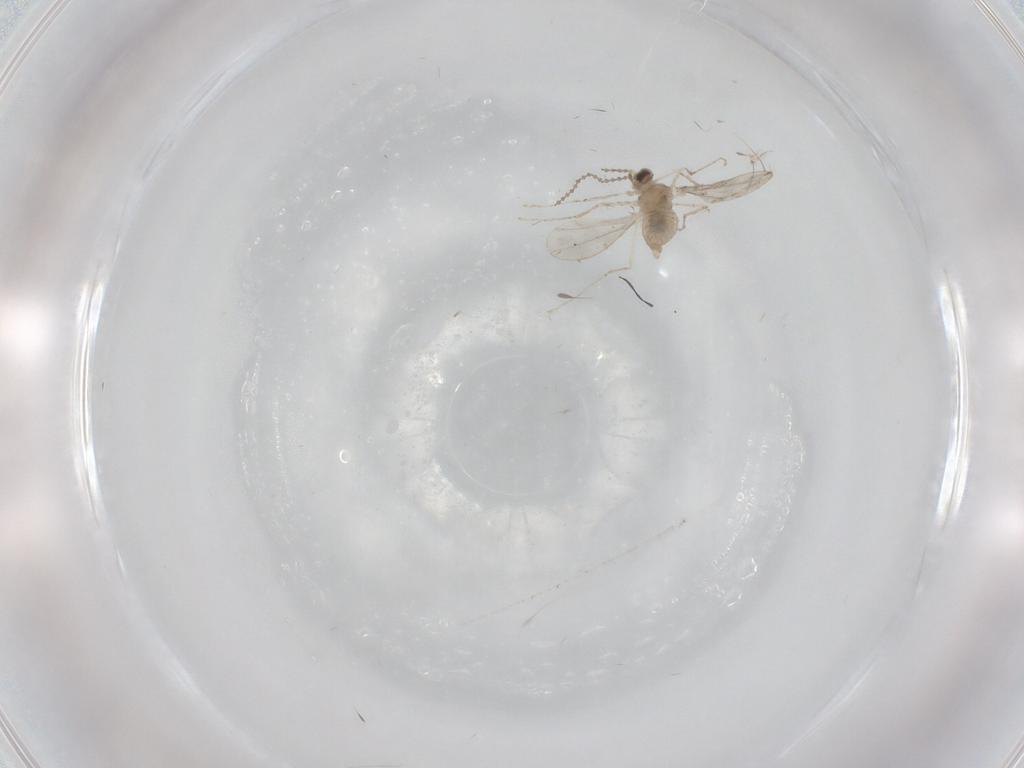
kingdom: Animalia
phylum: Arthropoda
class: Insecta
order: Diptera
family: Cecidomyiidae
